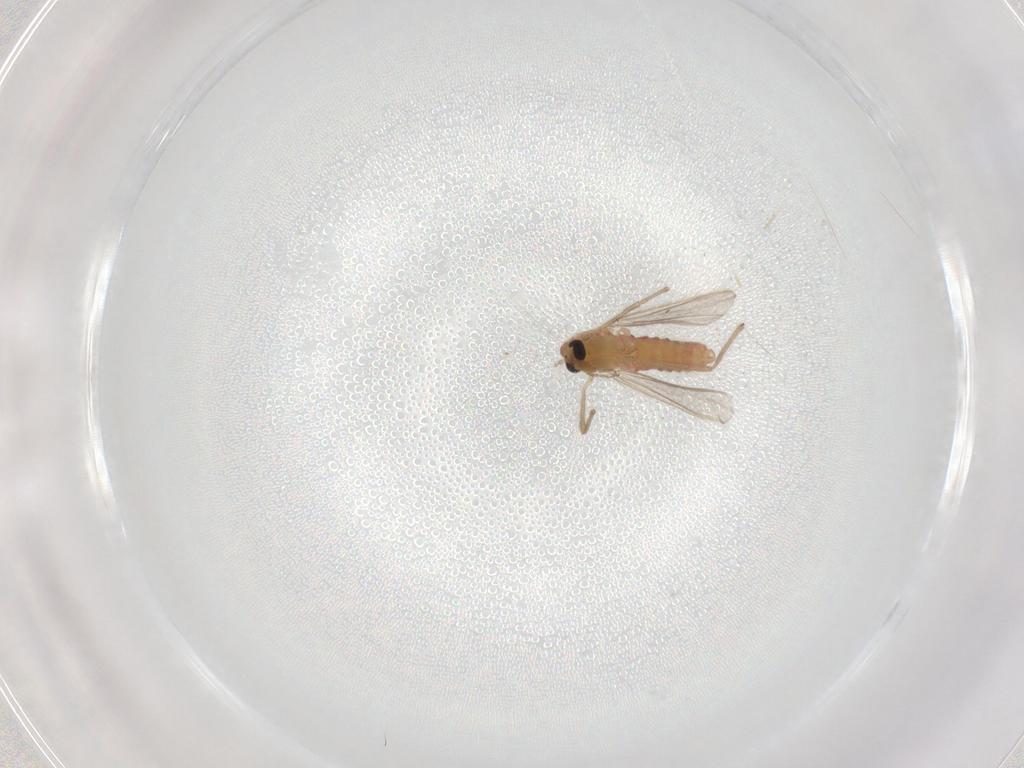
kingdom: Animalia
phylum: Arthropoda
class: Insecta
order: Diptera
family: Chironomidae
